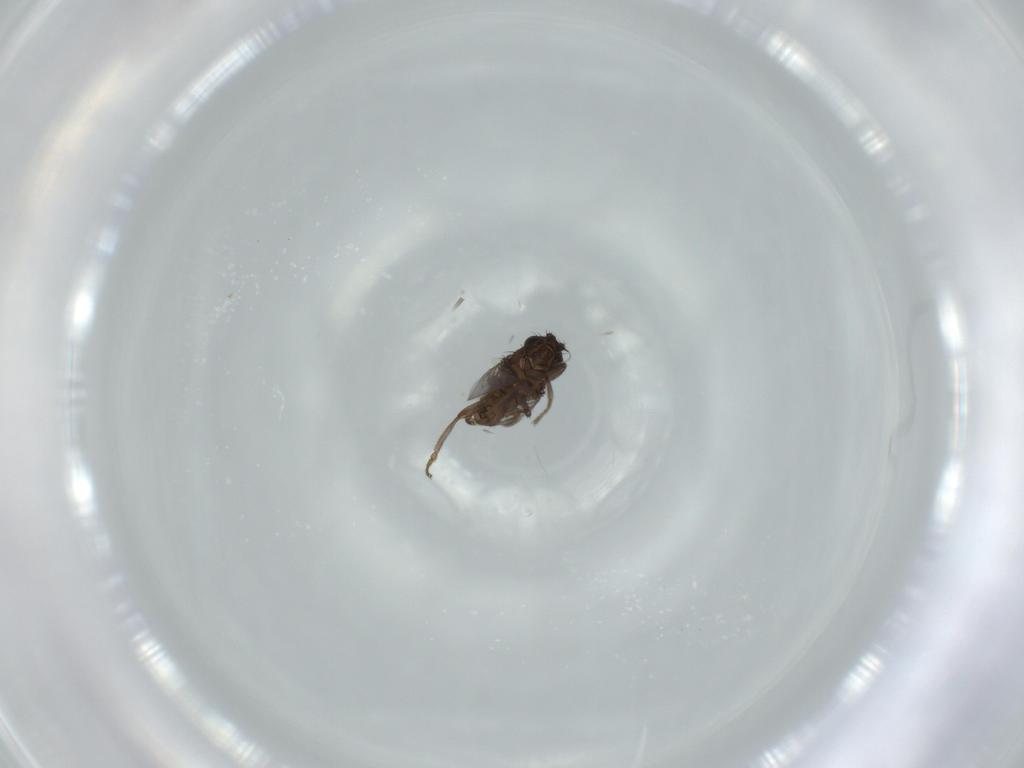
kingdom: Animalia
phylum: Arthropoda
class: Insecta
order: Diptera
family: Sphaeroceridae
